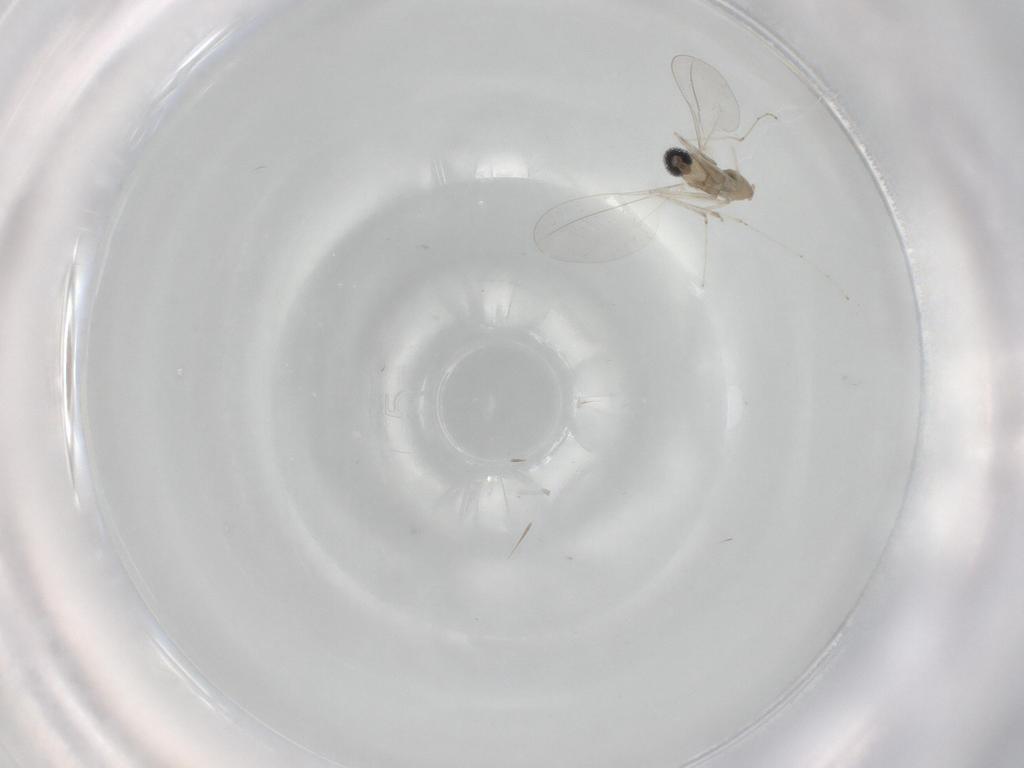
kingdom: Animalia
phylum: Arthropoda
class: Insecta
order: Diptera
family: Cecidomyiidae
